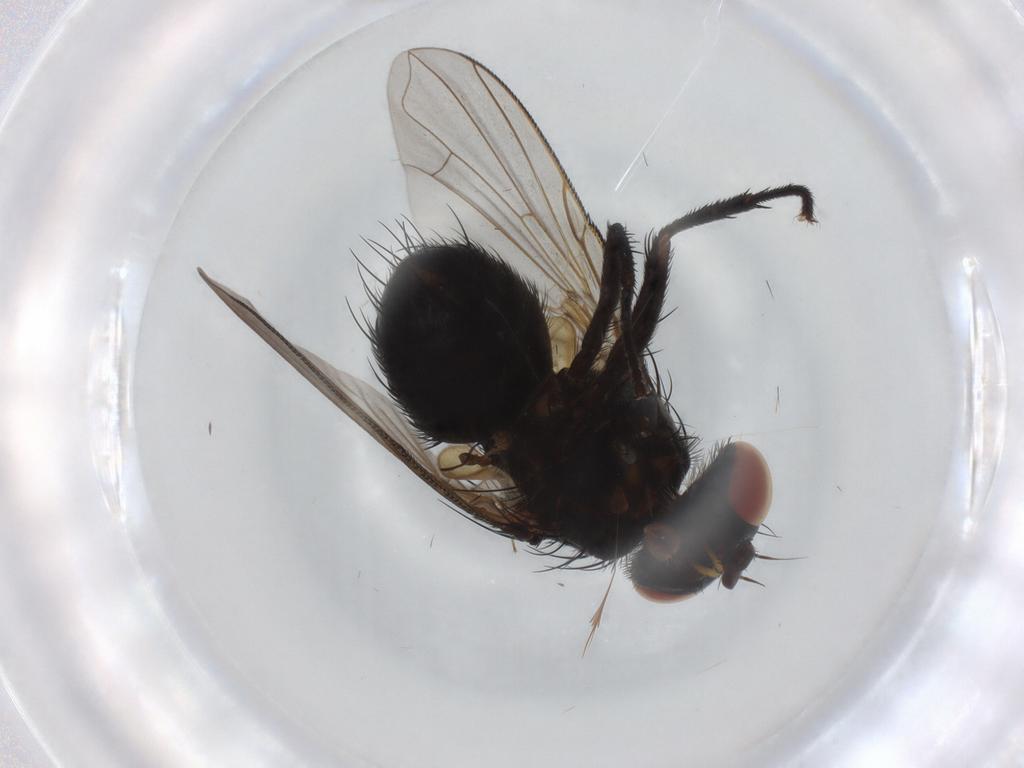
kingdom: Animalia
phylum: Arthropoda
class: Insecta
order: Diptera
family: Tachinidae
